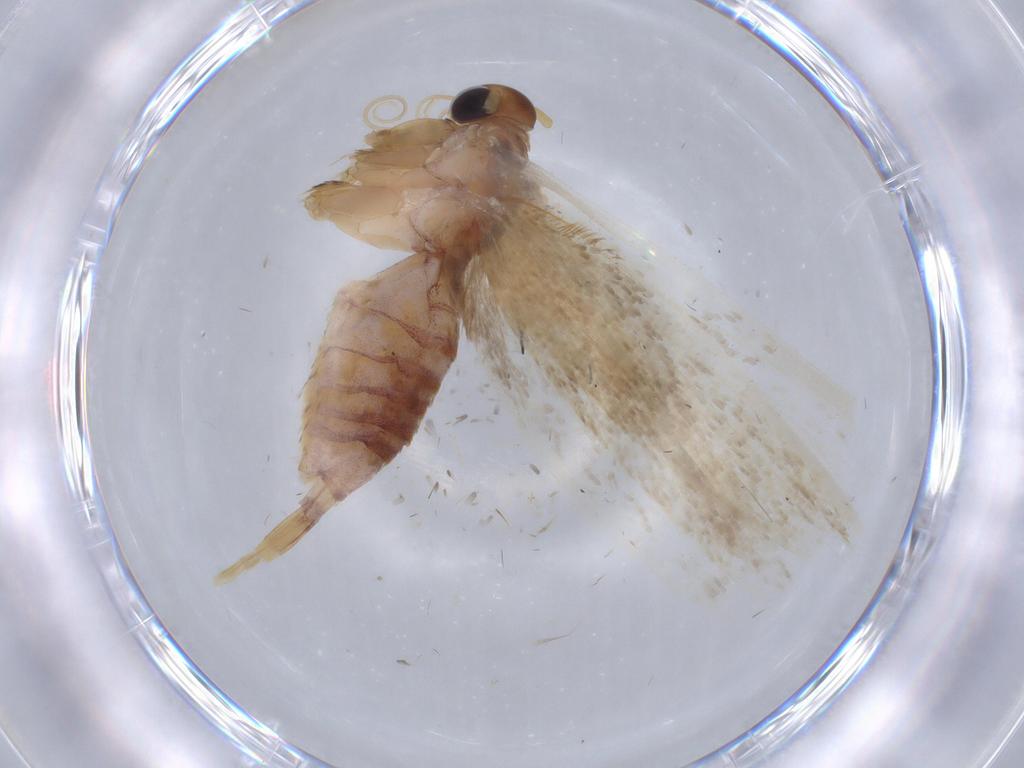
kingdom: Animalia
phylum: Arthropoda
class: Insecta
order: Lepidoptera
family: Blastobasidae
